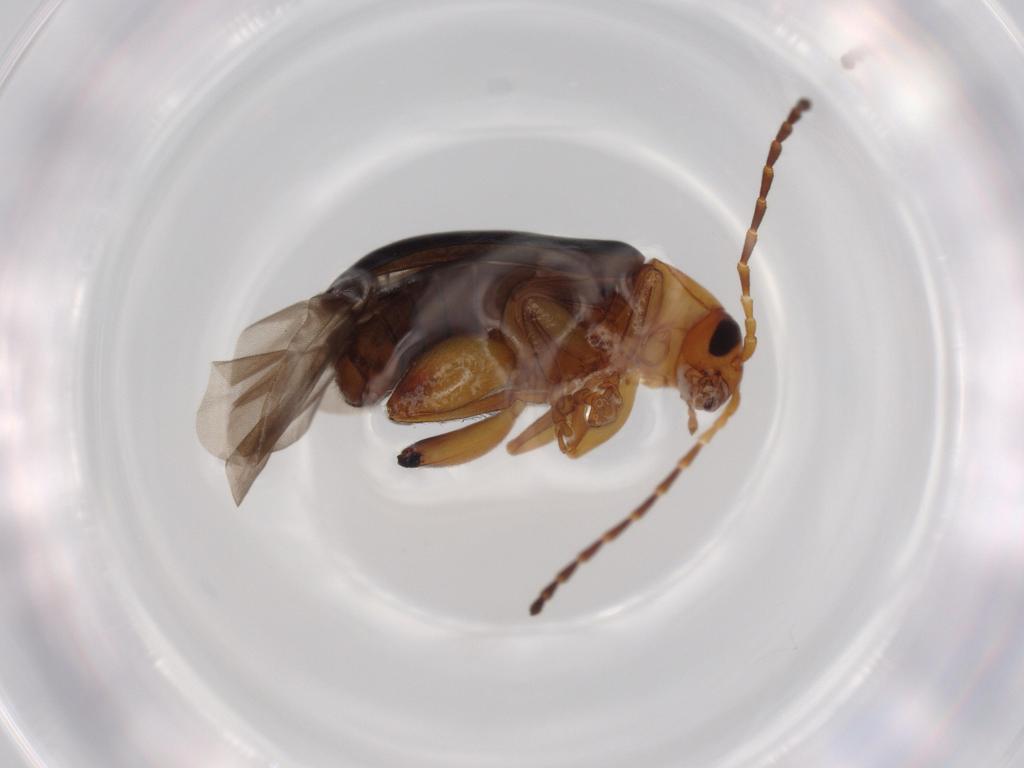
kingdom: Animalia
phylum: Arthropoda
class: Insecta
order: Coleoptera
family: Chrysomelidae
